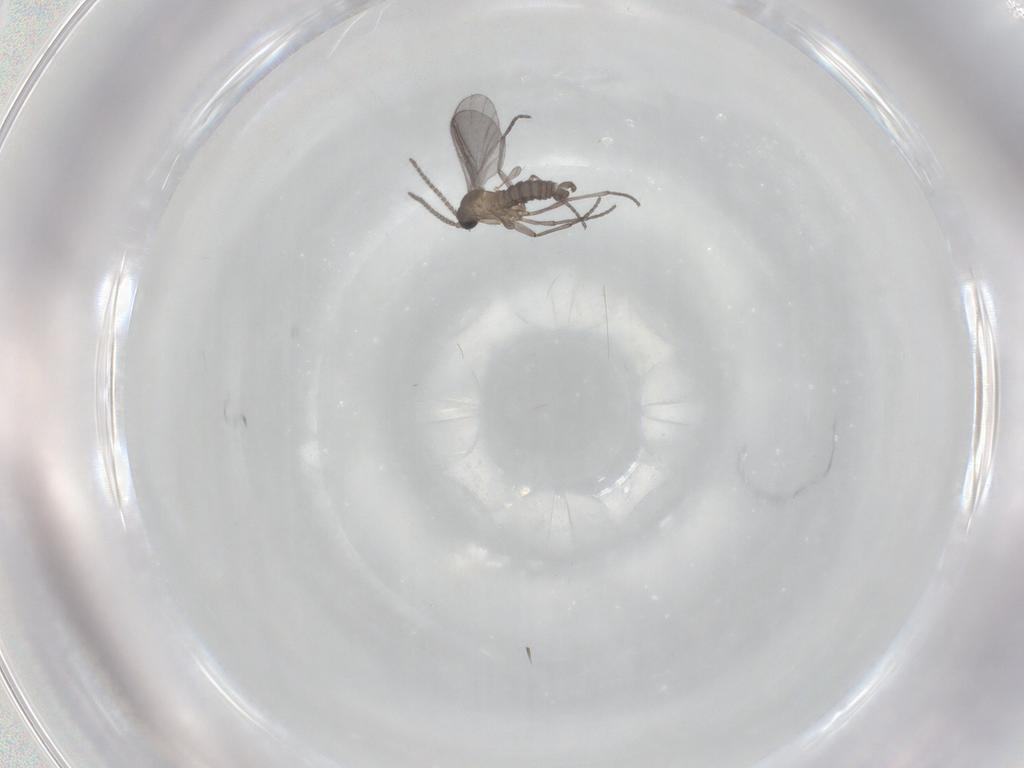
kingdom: Animalia
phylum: Arthropoda
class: Insecta
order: Diptera
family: Sciaridae
